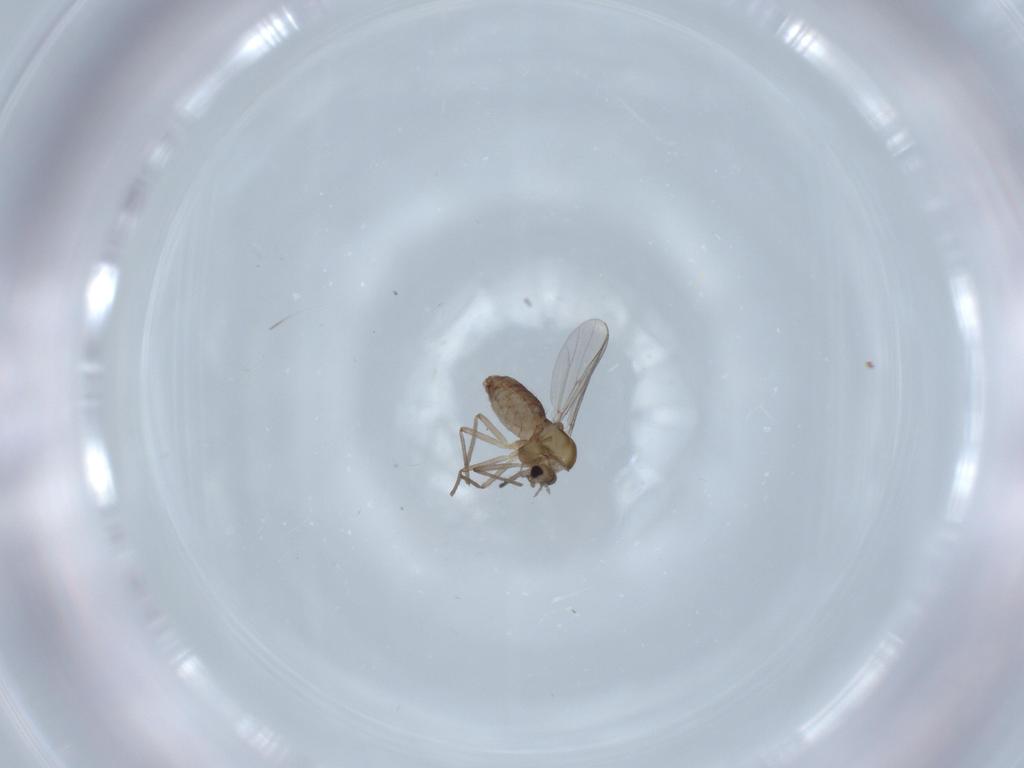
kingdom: Animalia
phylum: Arthropoda
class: Insecta
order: Diptera
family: Chironomidae
